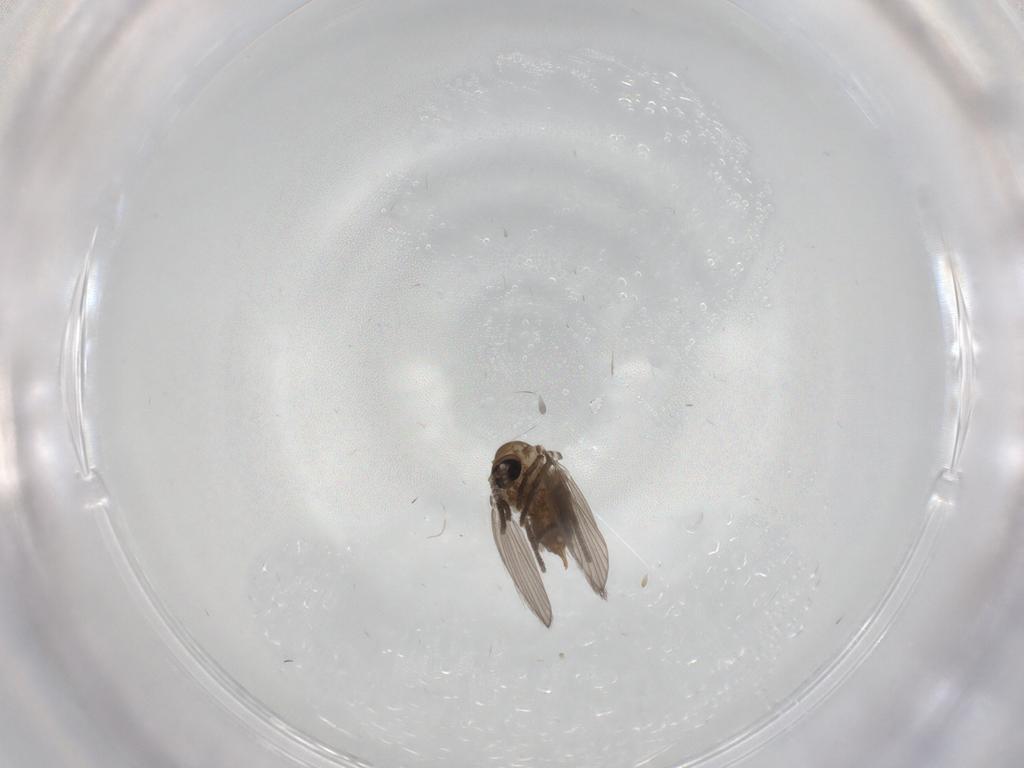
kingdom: Animalia
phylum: Arthropoda
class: Insecta
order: Diptera
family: Psychodidae
